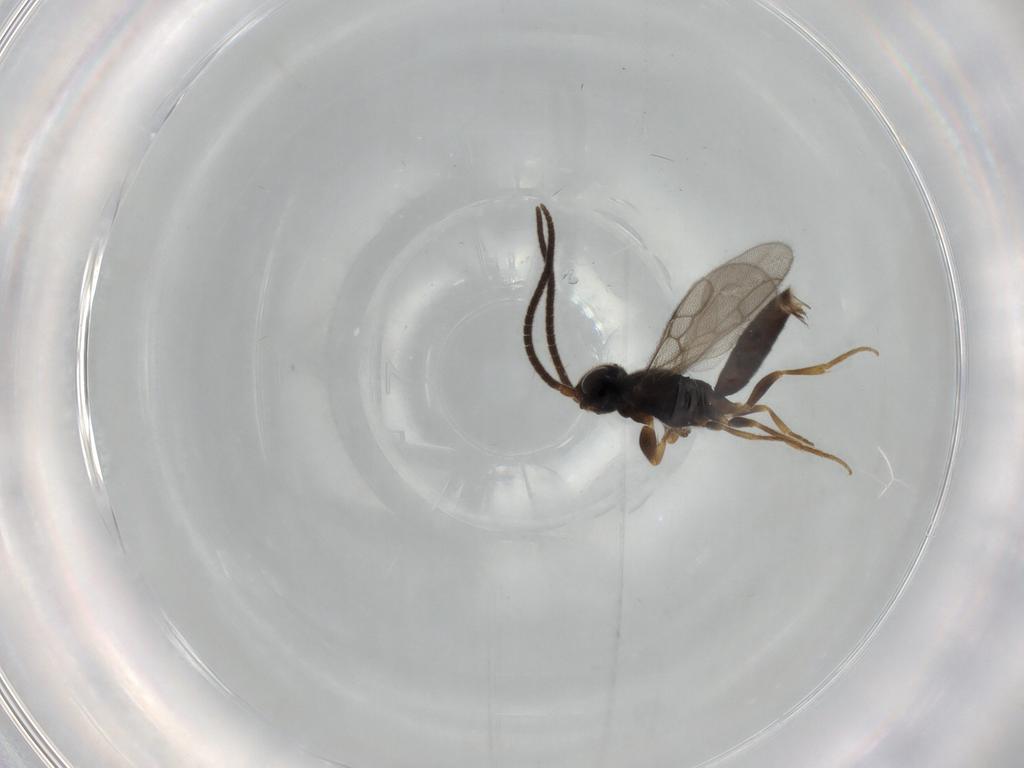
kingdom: Animalia
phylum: Arthropoda
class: Insecta
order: Hymenoptera
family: Sclerogibbidae
